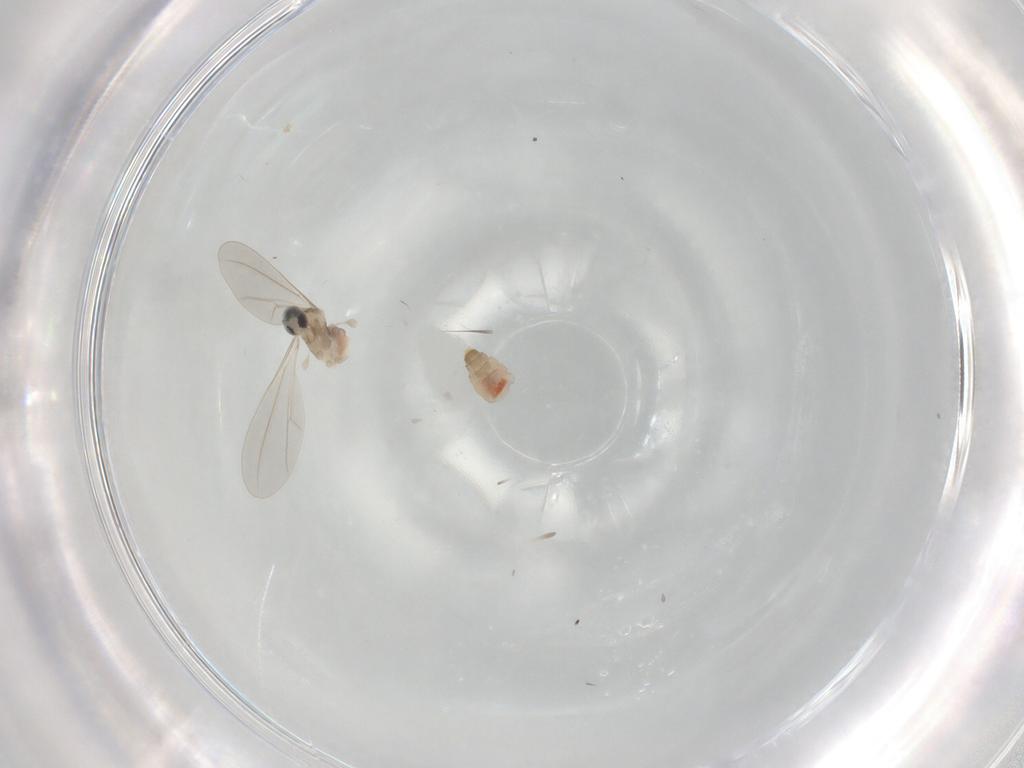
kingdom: Animalia
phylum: Arthropoda
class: Insecta
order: Diptera
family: Cecidomyiidae
